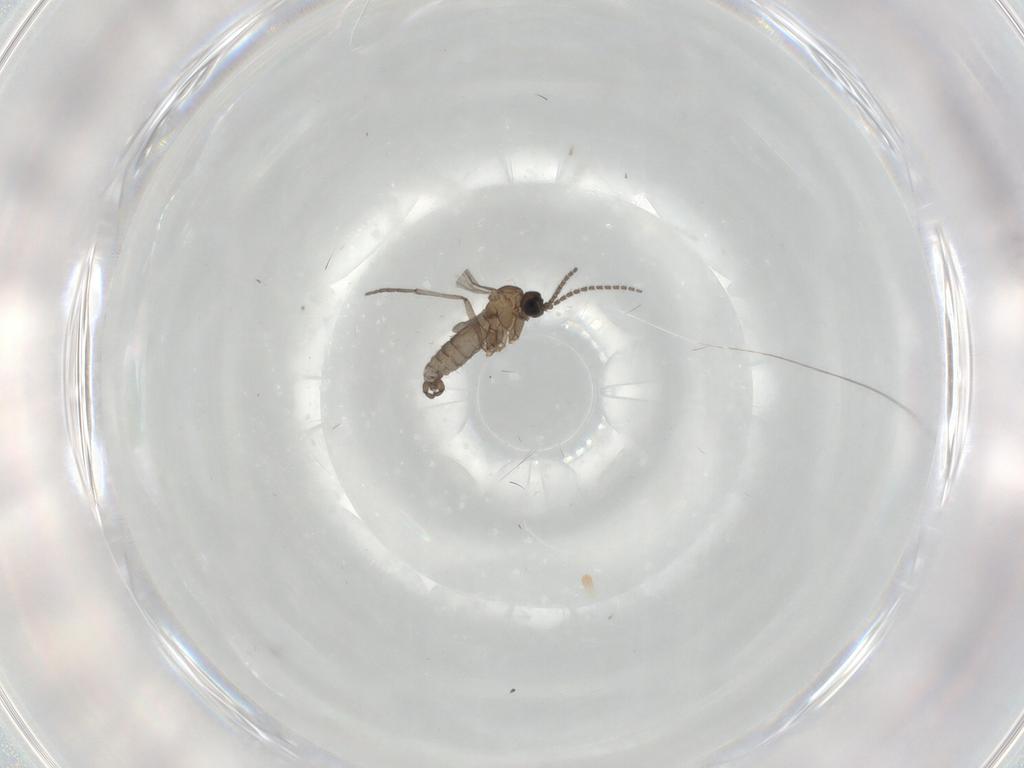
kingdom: Animalia
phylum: Arthropoda
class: Insecta
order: Diptera
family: Sciaridae
